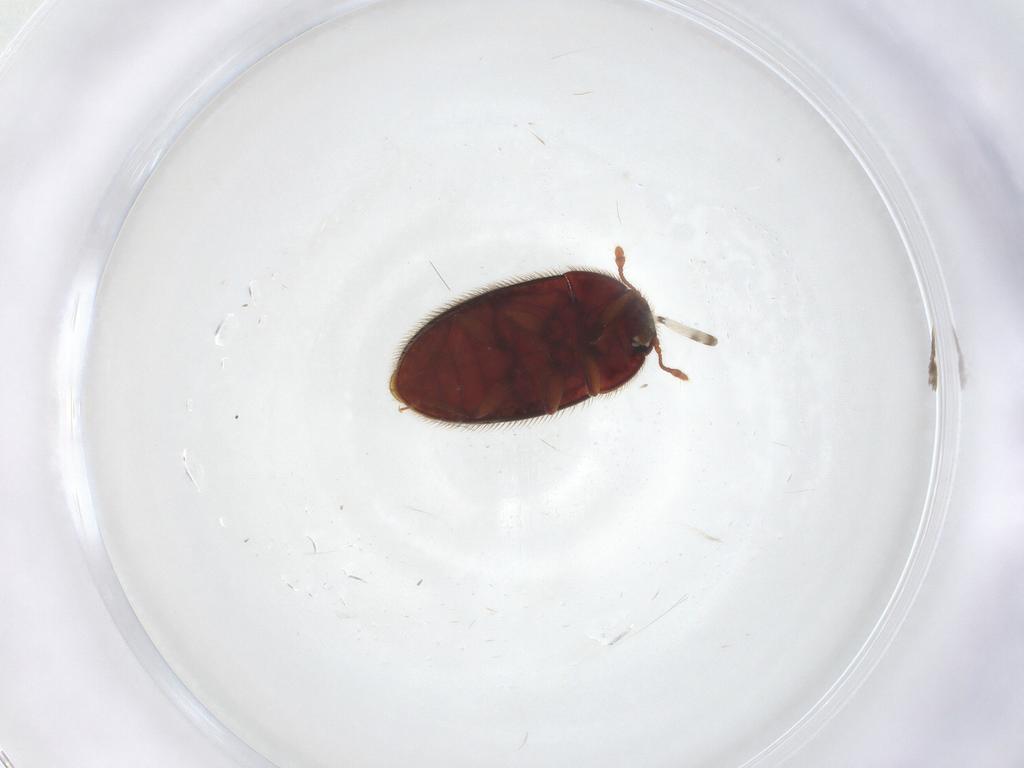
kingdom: Animalia
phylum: Arthropoda
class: Insecta
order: Coleoptera
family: Biphyllidae
